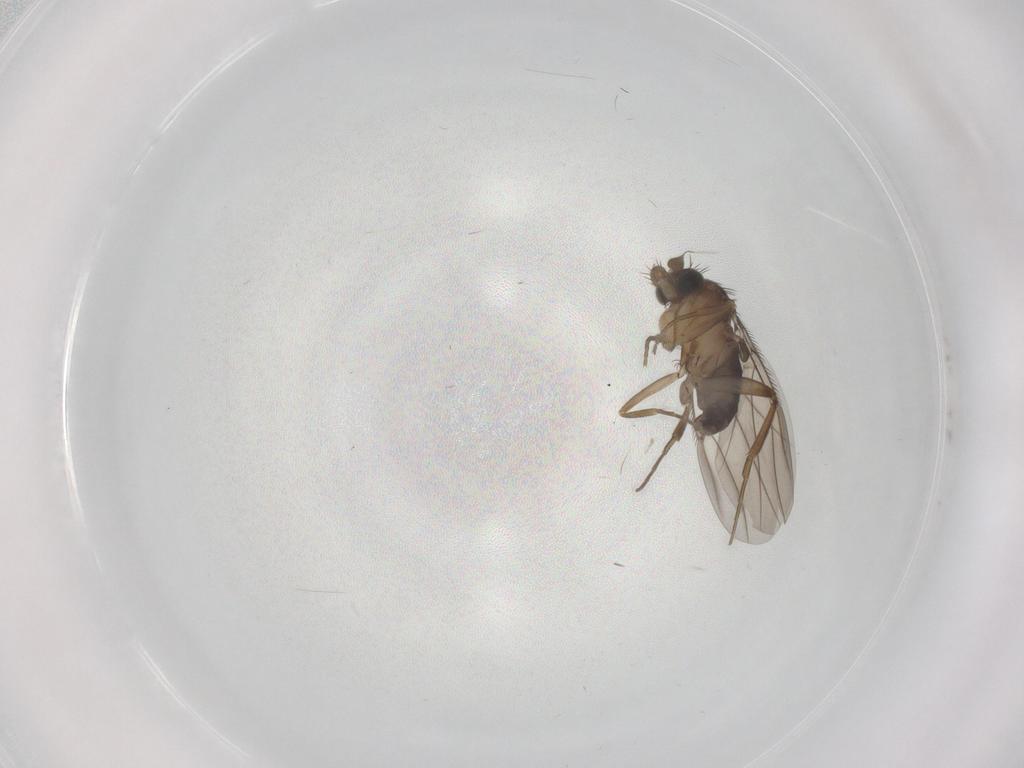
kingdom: Animalia
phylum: Arthropoda
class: Insecta
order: Diptera
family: Phoridae
